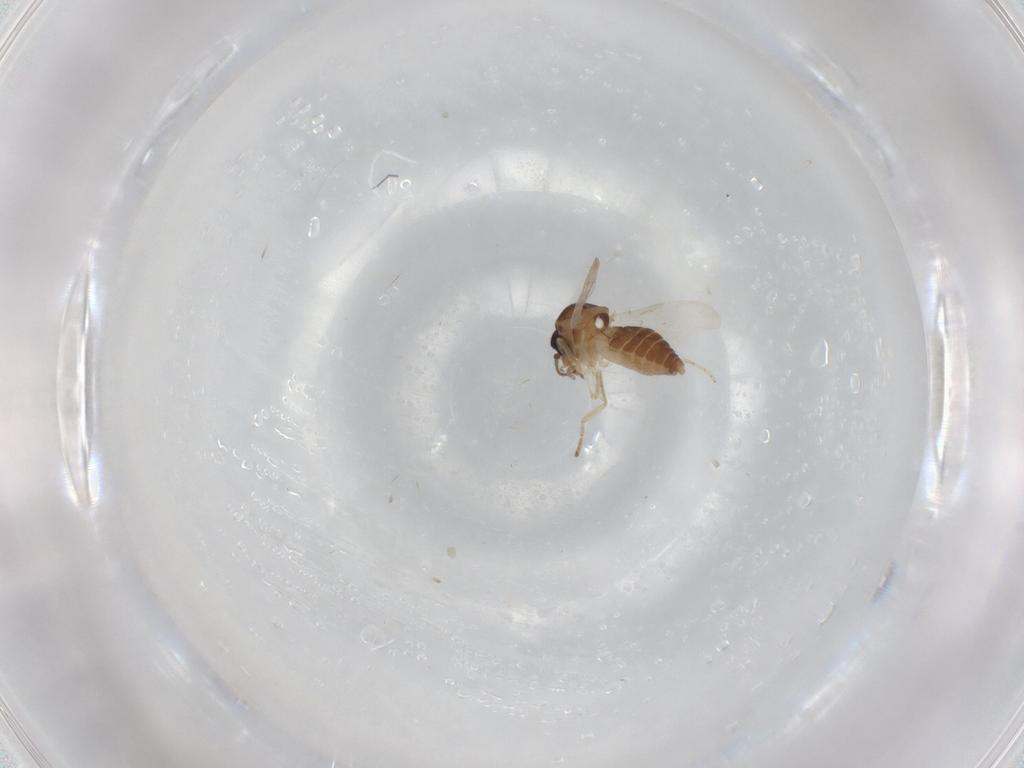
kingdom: Animalia
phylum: Arthropoda
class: Insecta
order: Diptera
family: Ceratopogonidae
